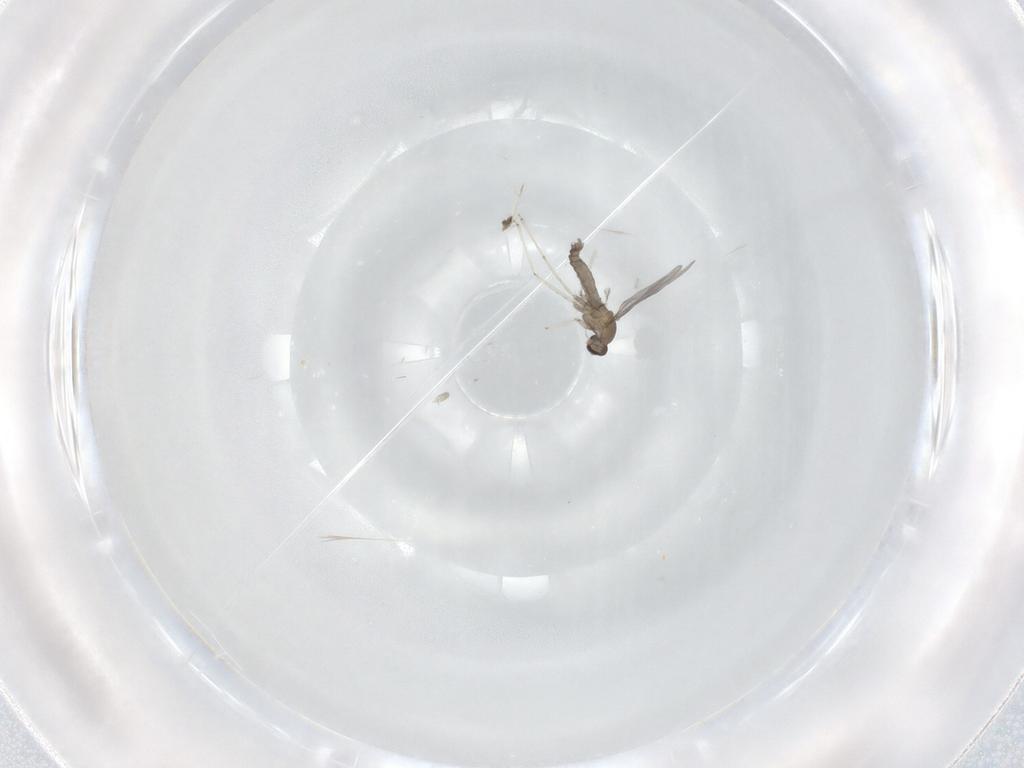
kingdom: Animalia
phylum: Arthropoda
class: Insecta
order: Diptera
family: Cecidomyiidae
